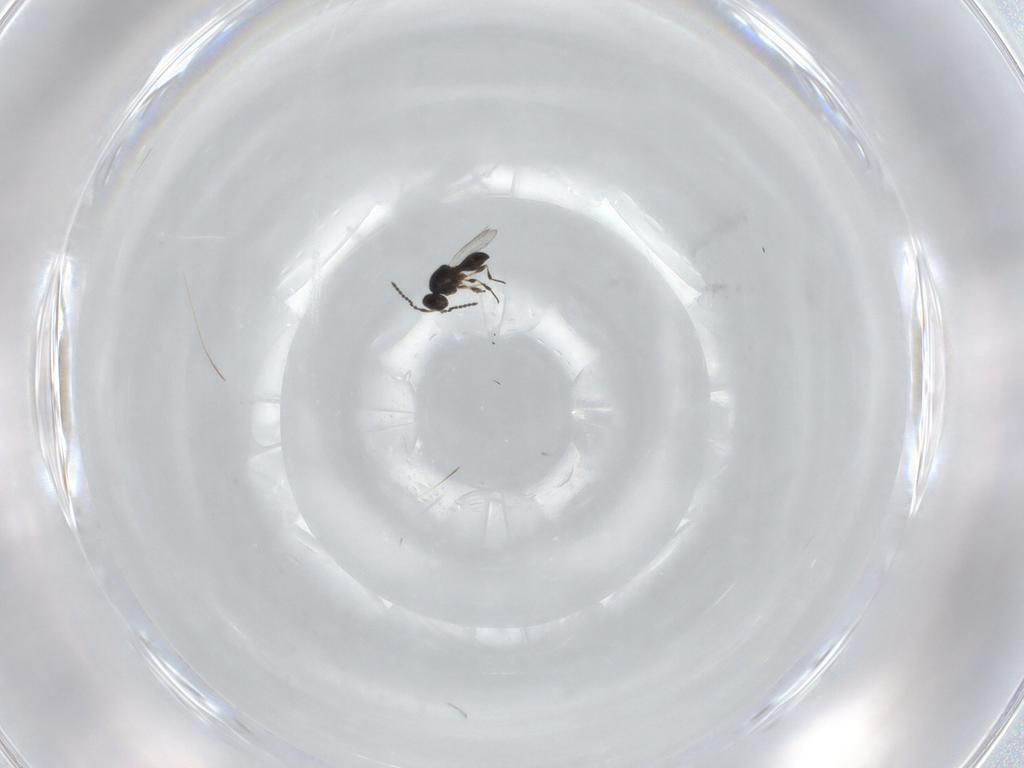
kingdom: Animalia
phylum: Arthropoda
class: Insecta
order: Hymenoptera
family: Platygastridae
